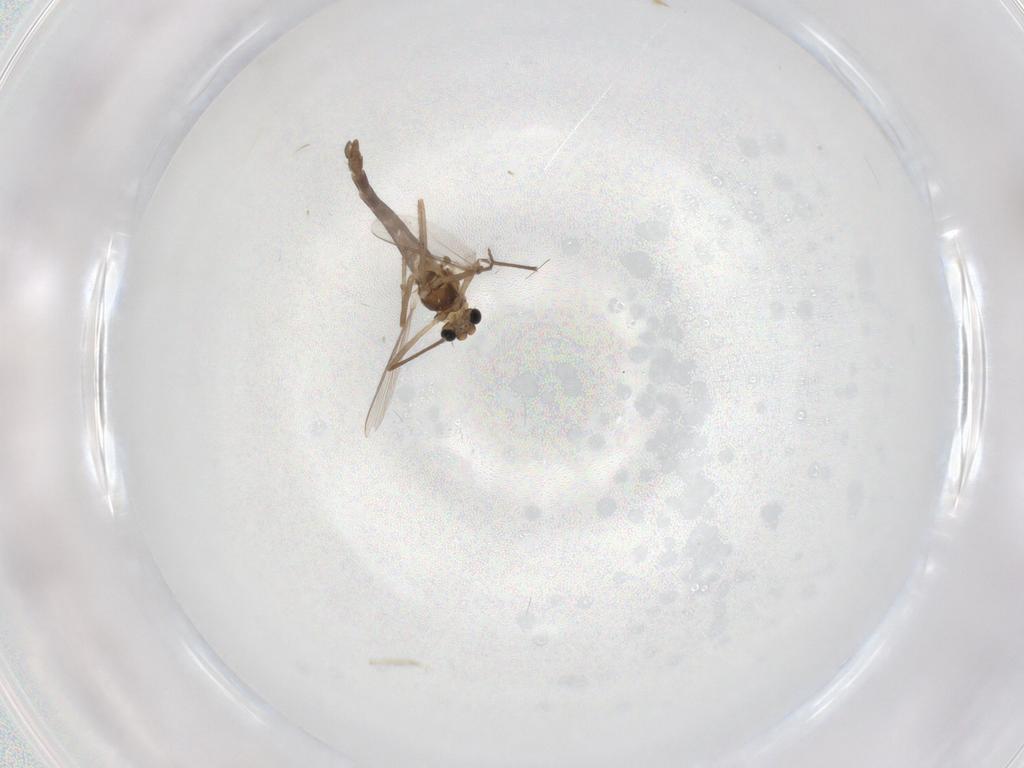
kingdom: Animalia
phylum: Arthropoda
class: Insecta
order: Diptera
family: Chironomidae
